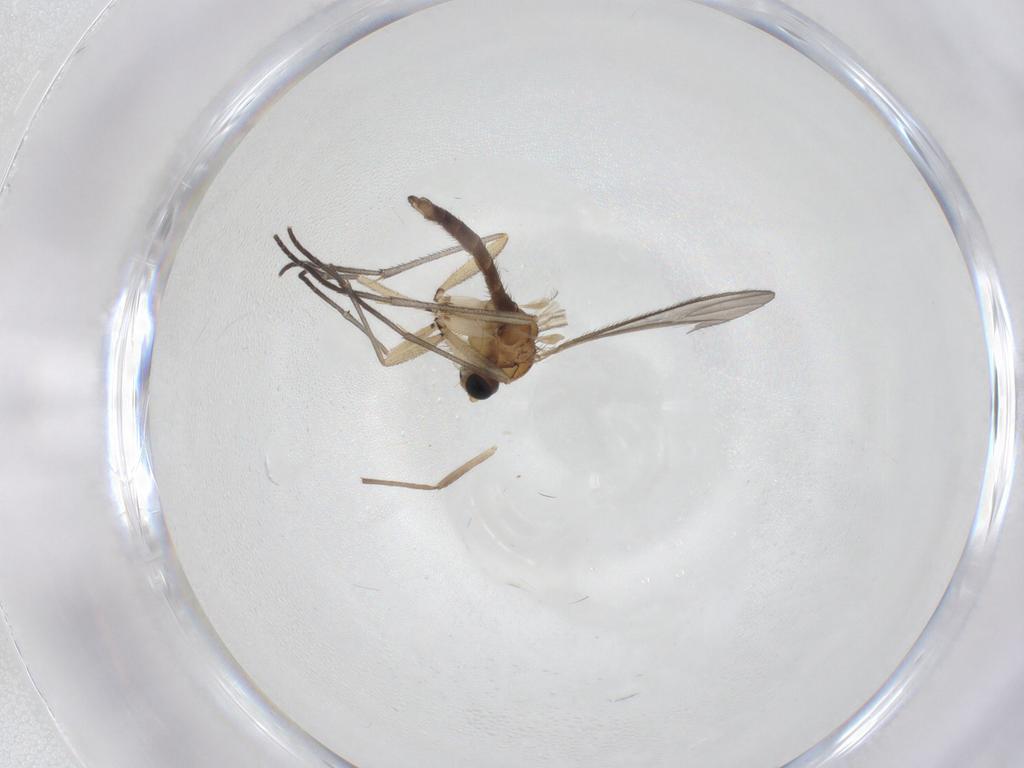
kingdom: Animalia
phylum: Arthropoda
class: Insecta
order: Diptera
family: Chironomidae
